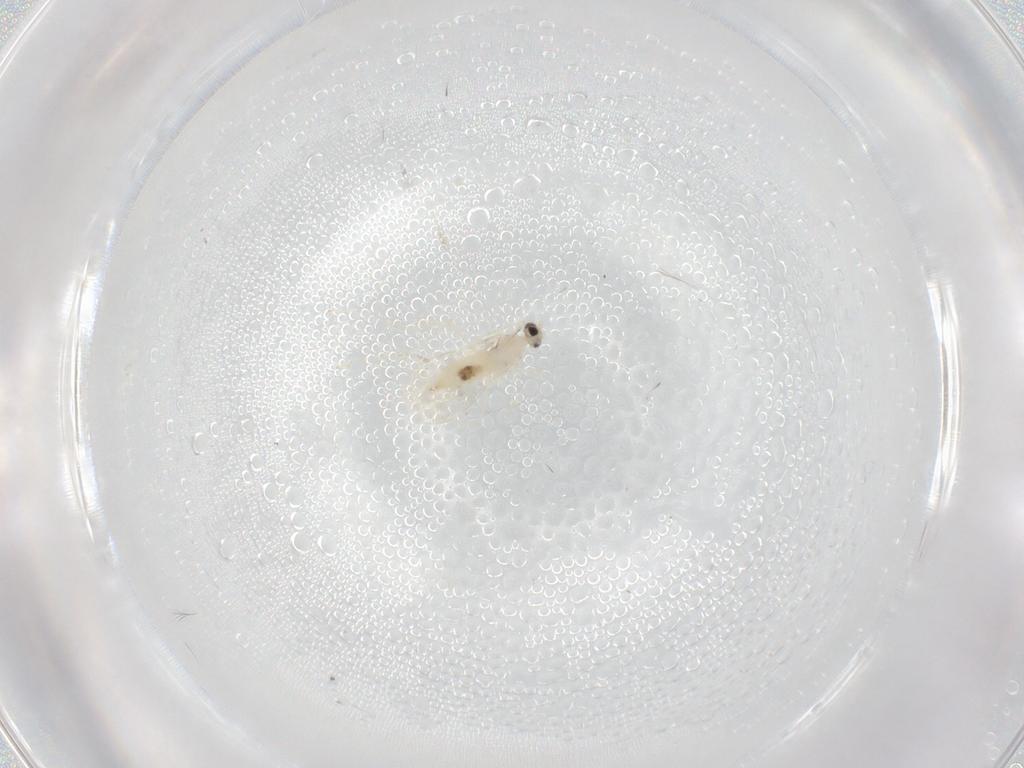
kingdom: Animalia
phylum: Arthropoda
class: Insecta
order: Diptera
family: Cecidomyiidae
